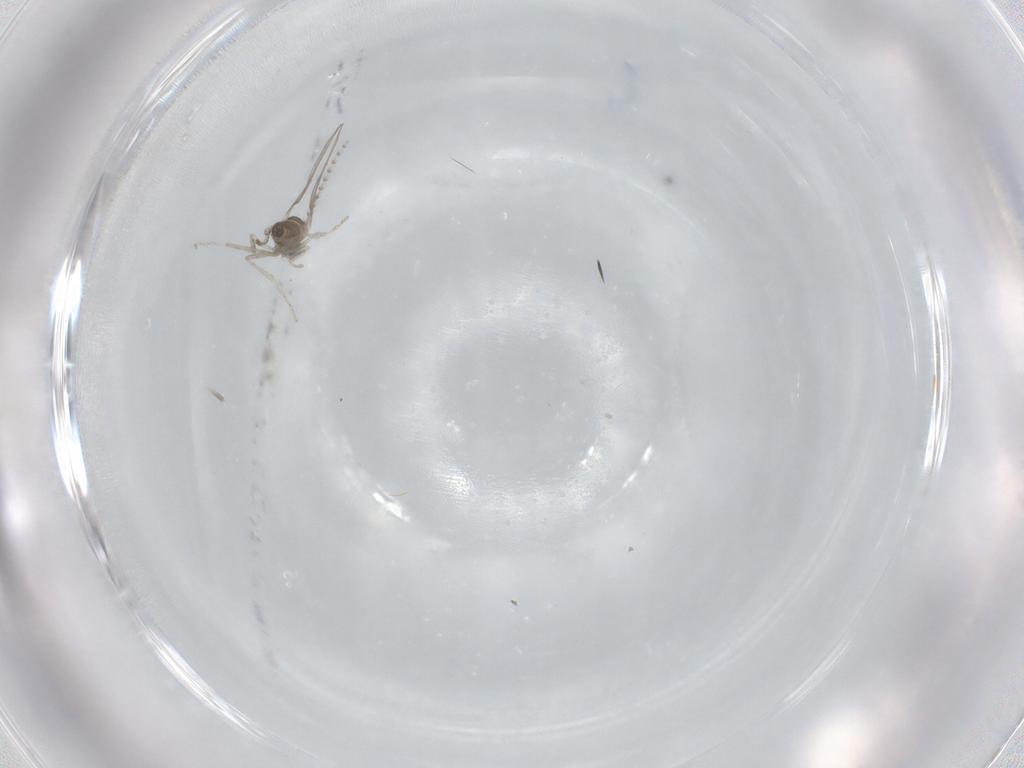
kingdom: Animalia
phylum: Arthropoda
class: Insecta
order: Diptera
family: Cecidomyiidae
